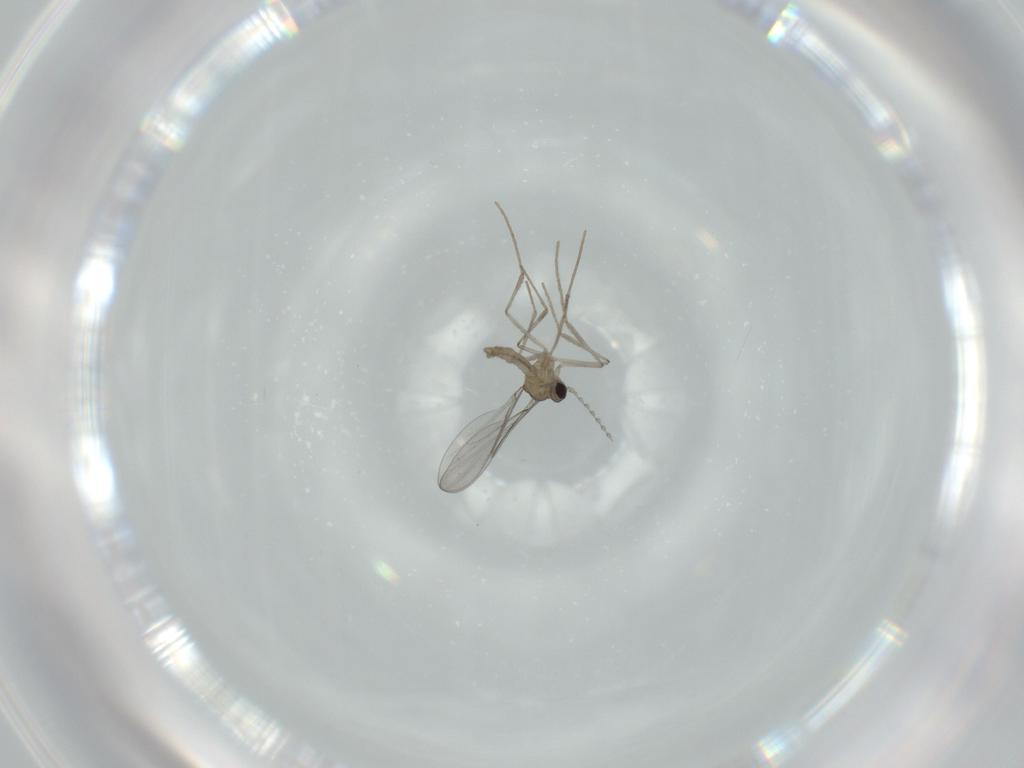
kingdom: Animalia
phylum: Arthropoda
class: Insecta
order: Diptera
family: Cecidomyiidae
